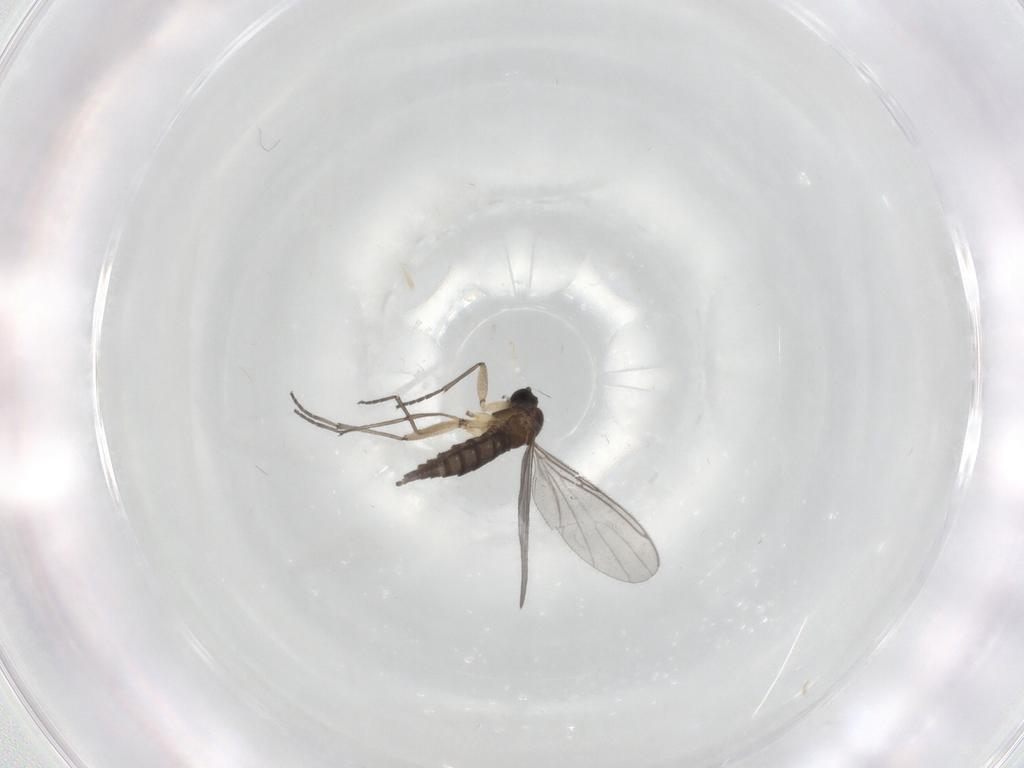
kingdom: Animalia
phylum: Arthropoda
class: Insecta
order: Diptera
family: Sciaridae
